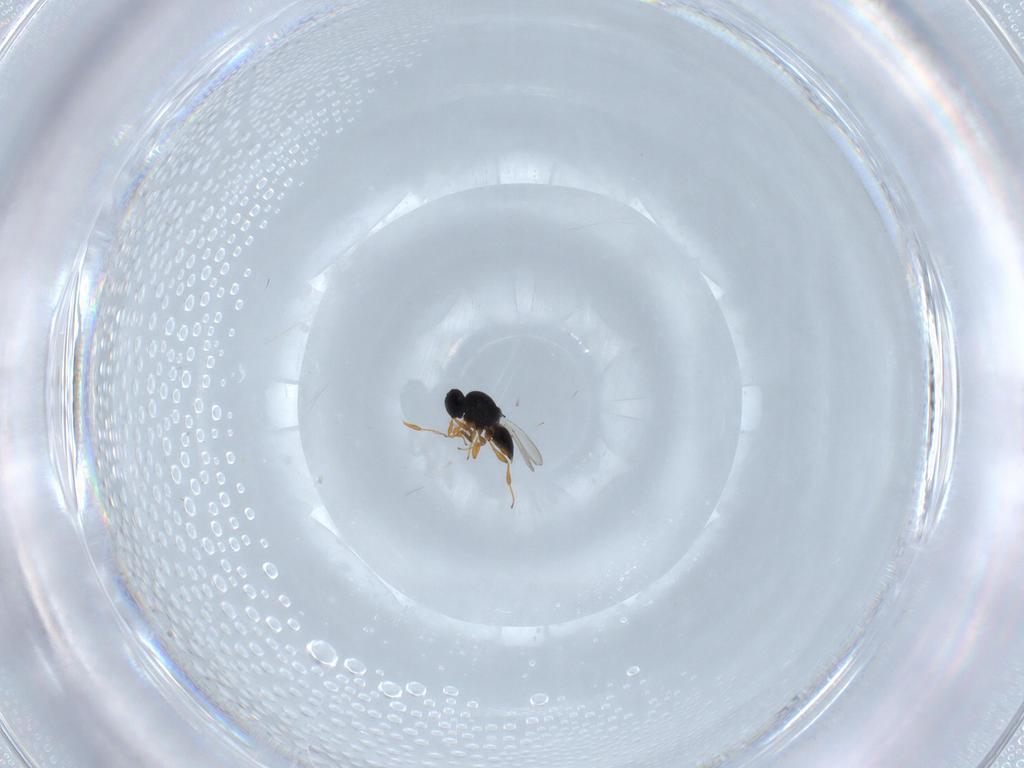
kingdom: Animalia
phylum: Arthropoda
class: Insecta
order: Hymenoptera
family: Platygastridae
